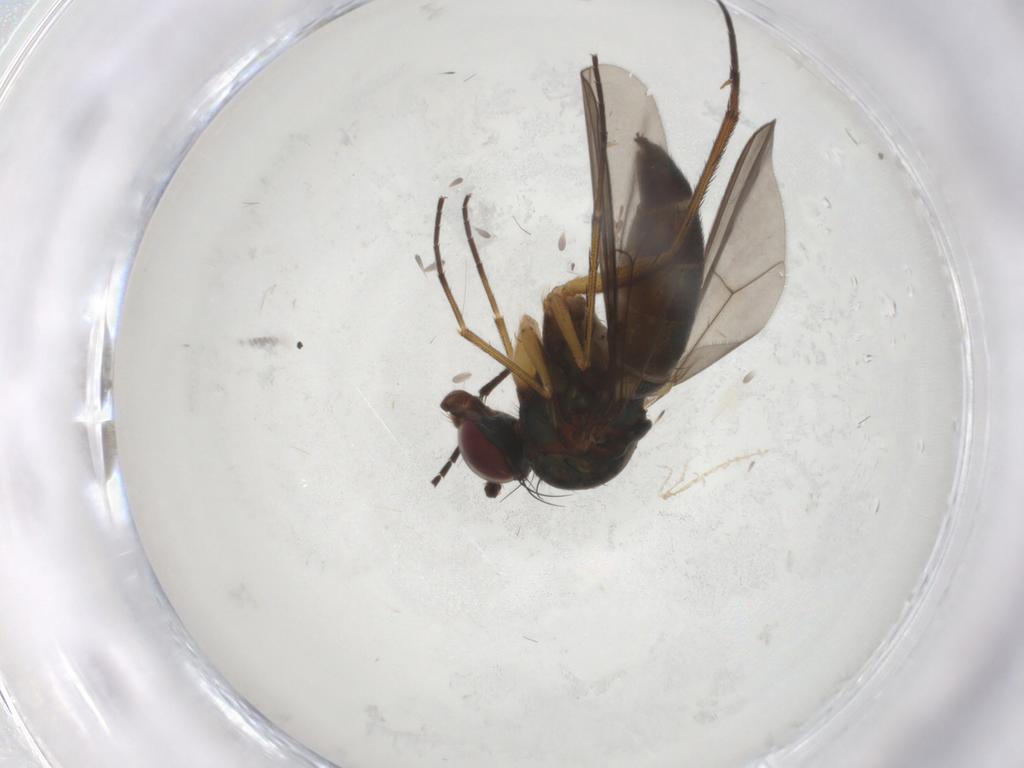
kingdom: Animalia
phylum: Arthropoda
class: Insecta
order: Diptera
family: Dolichopodidae
